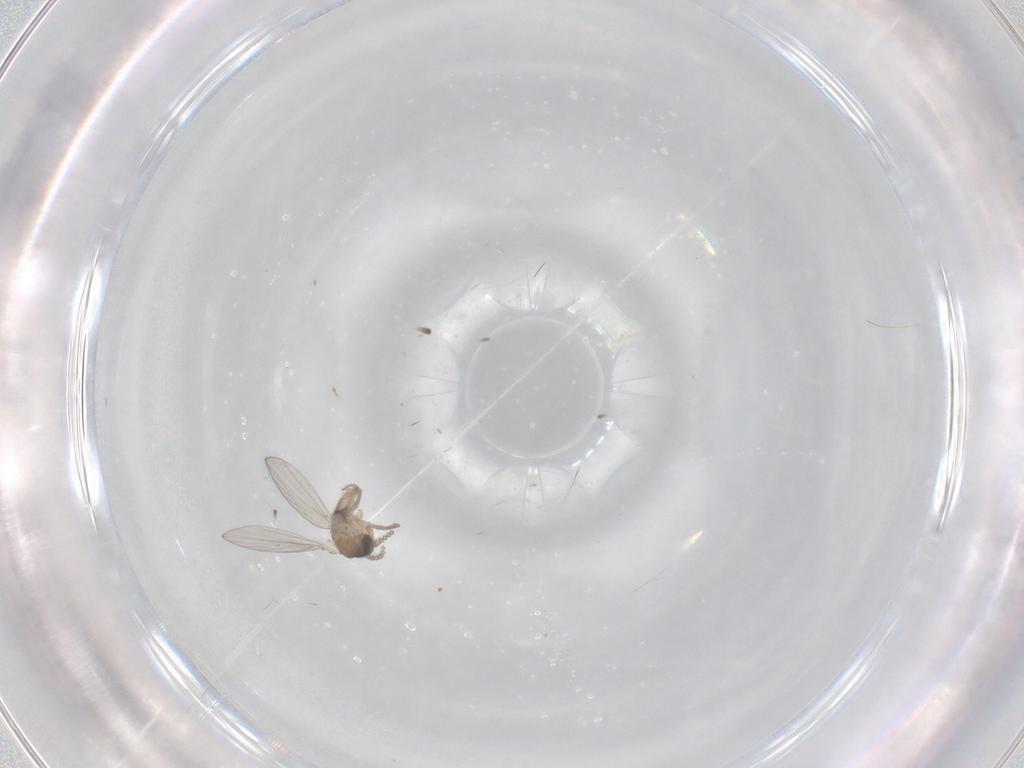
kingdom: Animalia
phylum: Arthropoda
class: Insecta
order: Diptera
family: Psychodidae
